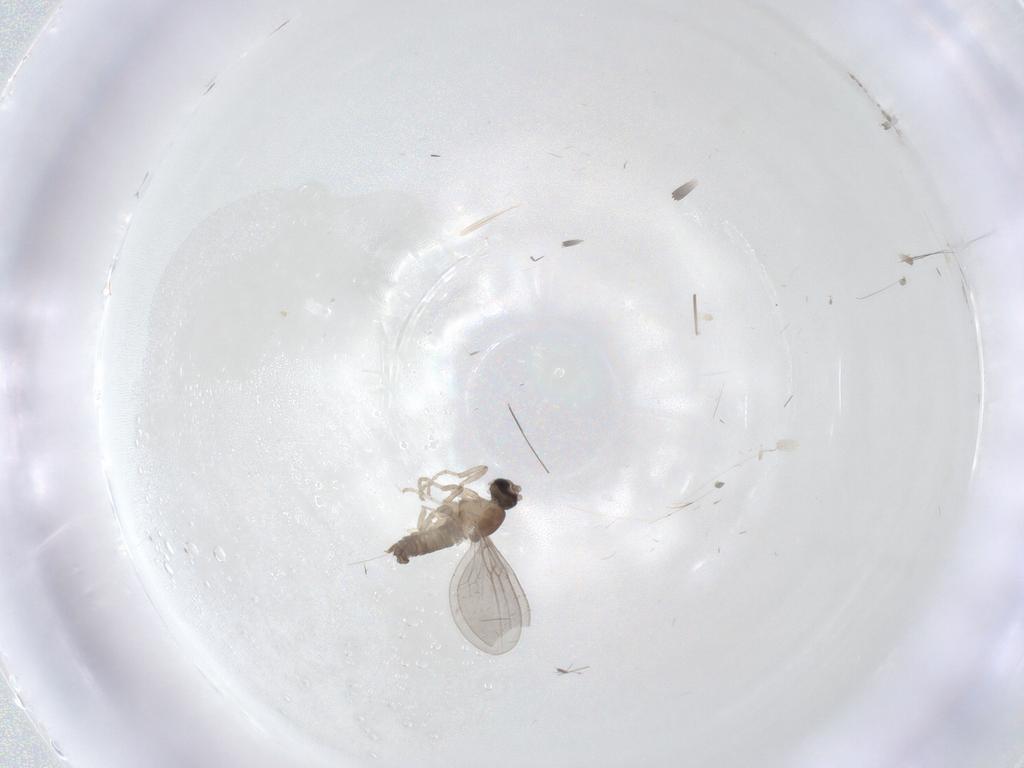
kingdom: Animalia
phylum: Arthropoda
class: Insecta
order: Diptera
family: Cecidomyiidae
